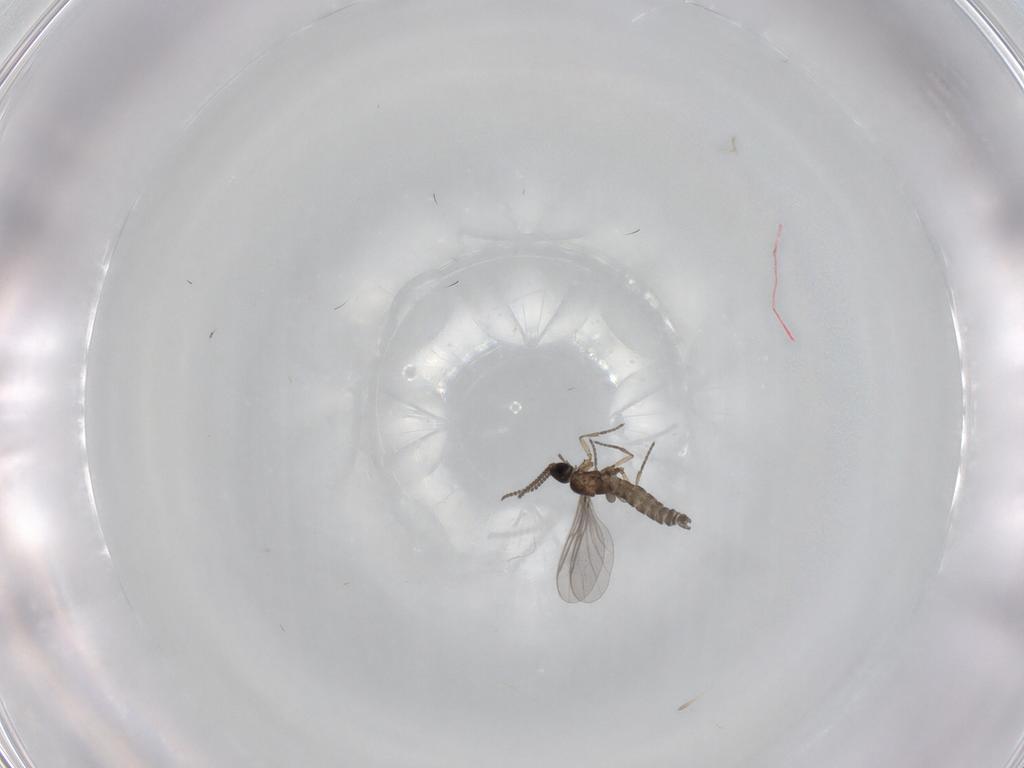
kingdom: Animalia
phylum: Arthropoda
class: Insecta
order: Diptera
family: Sciaridae
